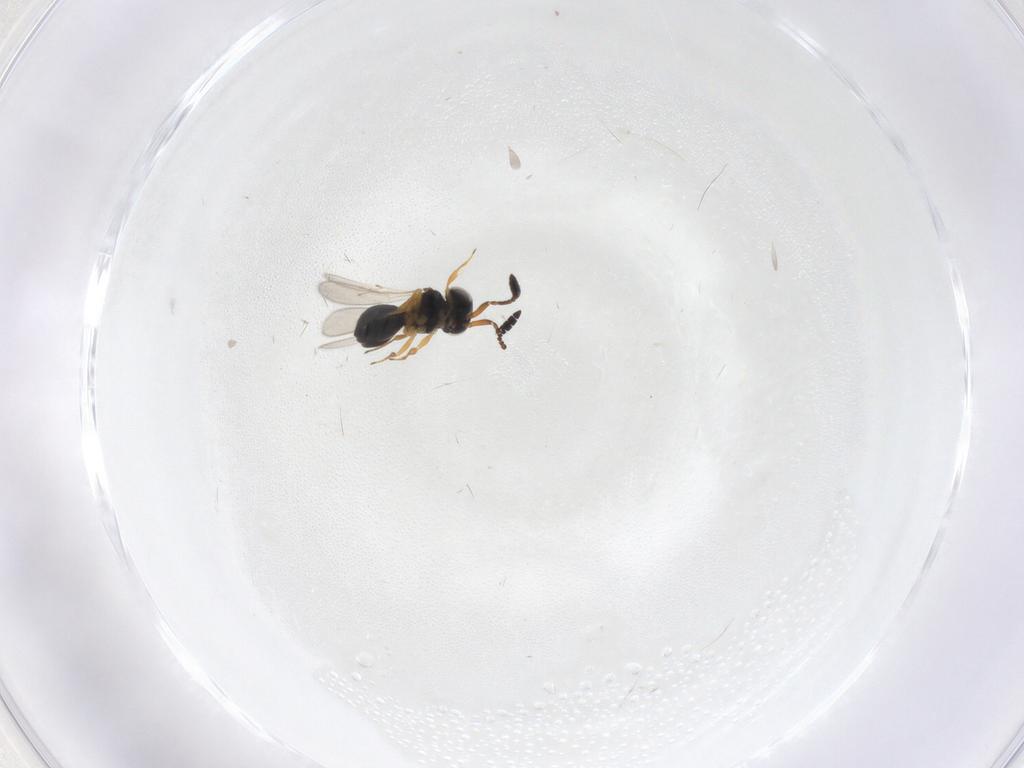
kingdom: Animalia
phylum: Arthropoda
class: Insecta
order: Hymenoptera
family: Scelionidae
